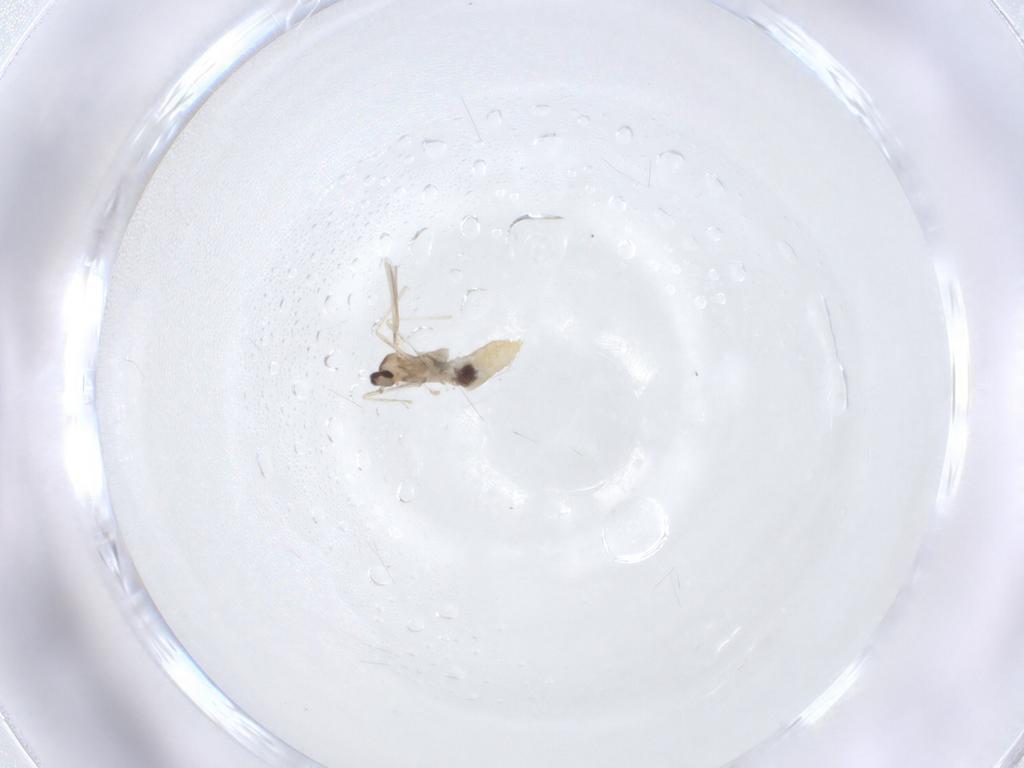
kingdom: Animalia
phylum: Arthropoda
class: Insecta
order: Diptera
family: Cecidomyiidae
